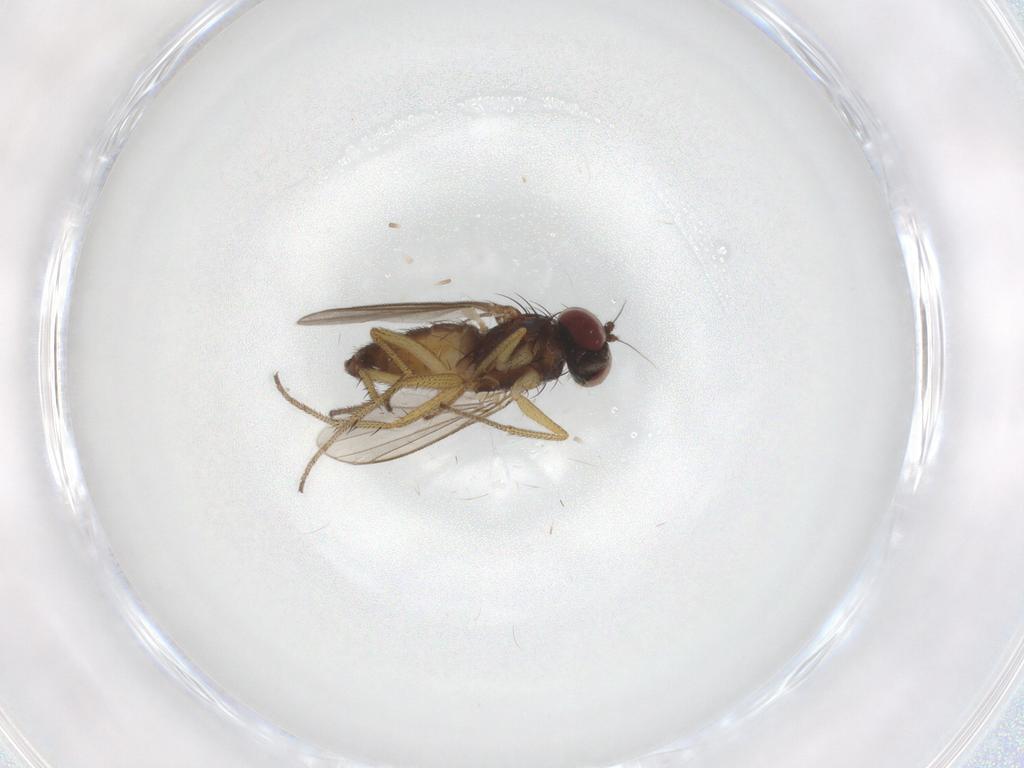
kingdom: Animalia
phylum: Arthropoda
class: Insecta
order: Diptera
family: Dolichopodidae
